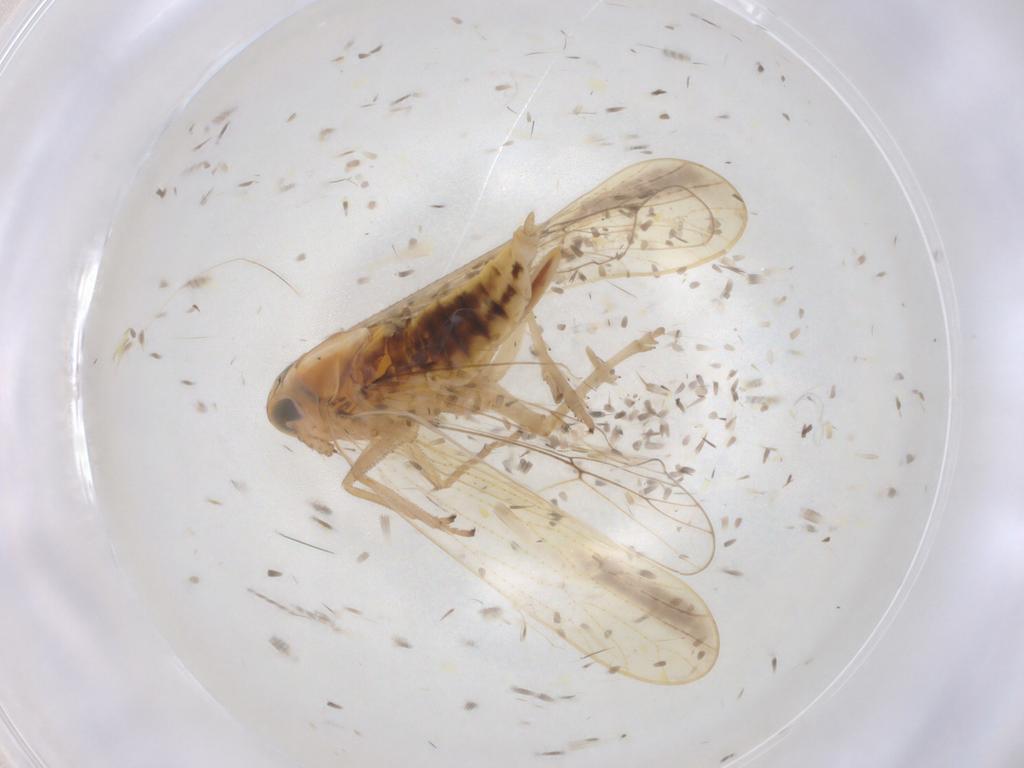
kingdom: Animalia
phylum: Arthropoda
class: Insecta
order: Hemiptera
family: Delphacidae
